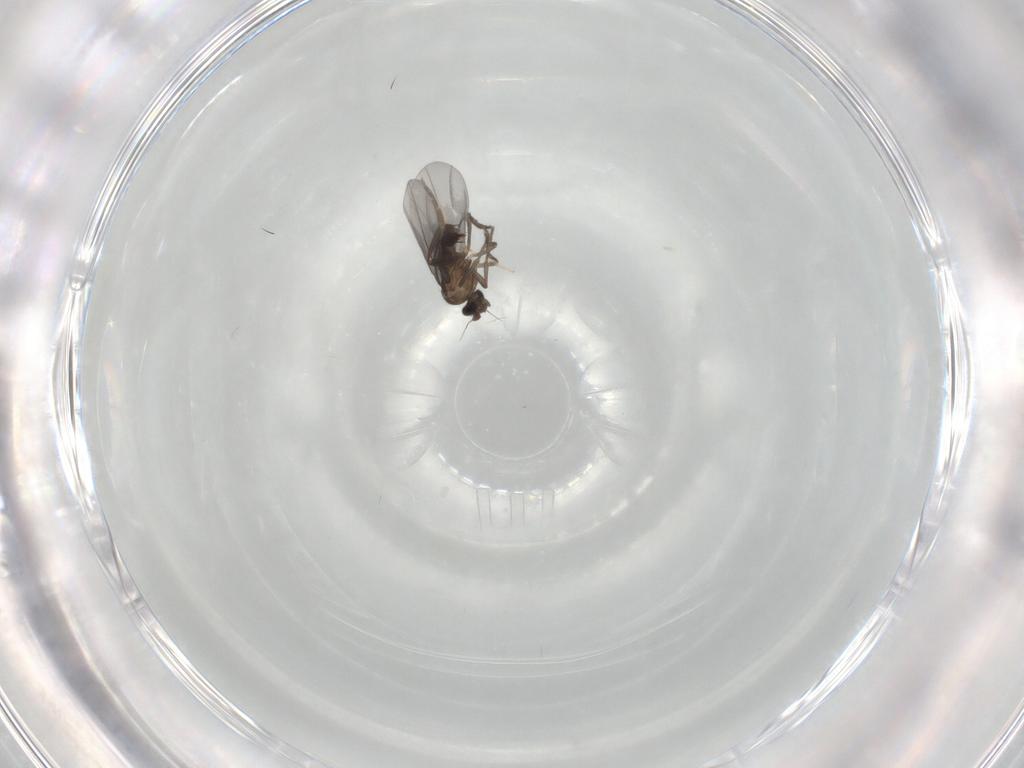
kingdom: Animalia
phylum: Arthropoda
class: Insecta
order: Diptera
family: Phoridae
